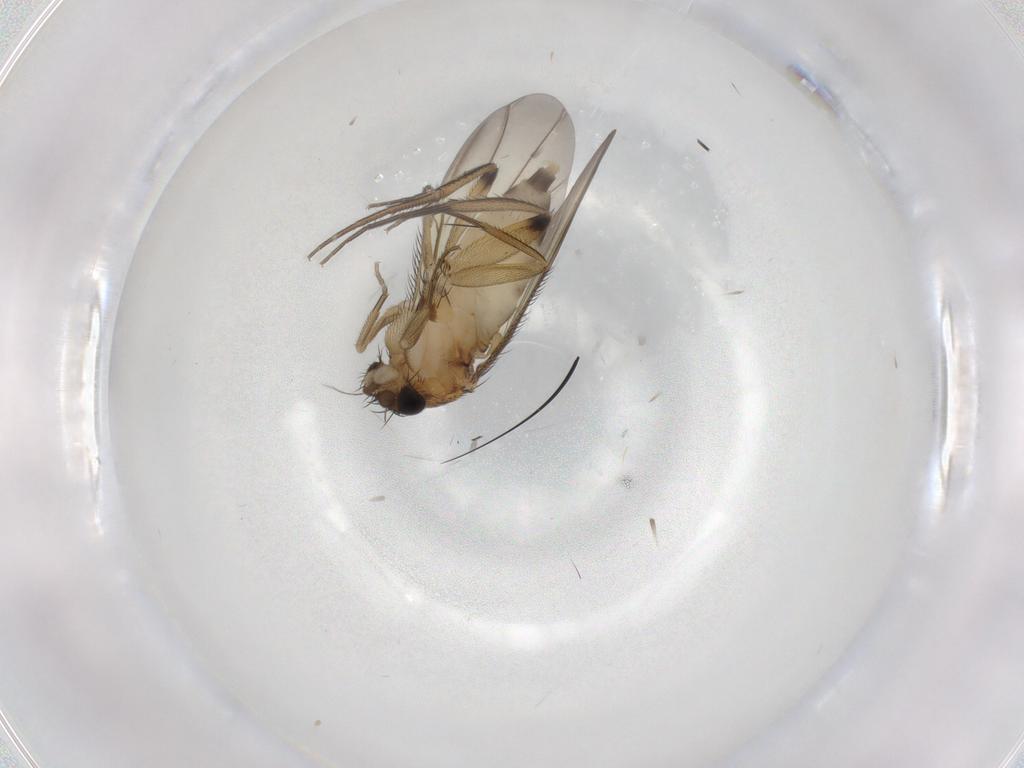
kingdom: Animalia
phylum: Arthropoda
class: Insecta
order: Diptera
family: Phoridae
